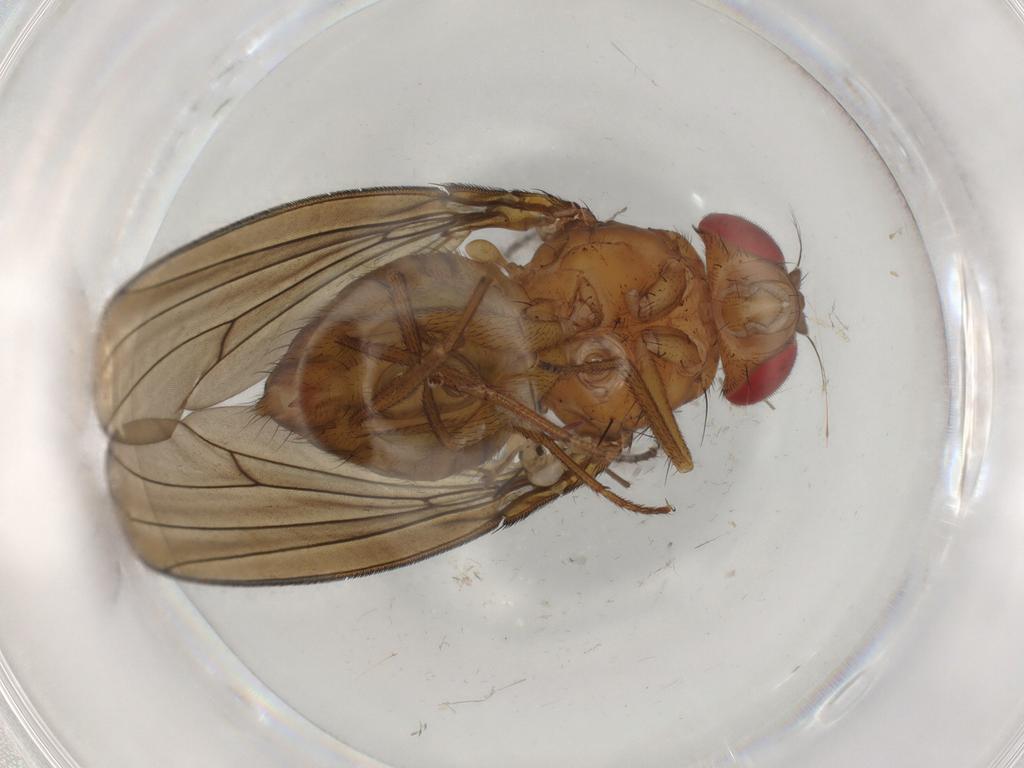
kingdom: Animalia
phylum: Arthropoda
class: Insecta
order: Diptera
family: Drosophilidae
